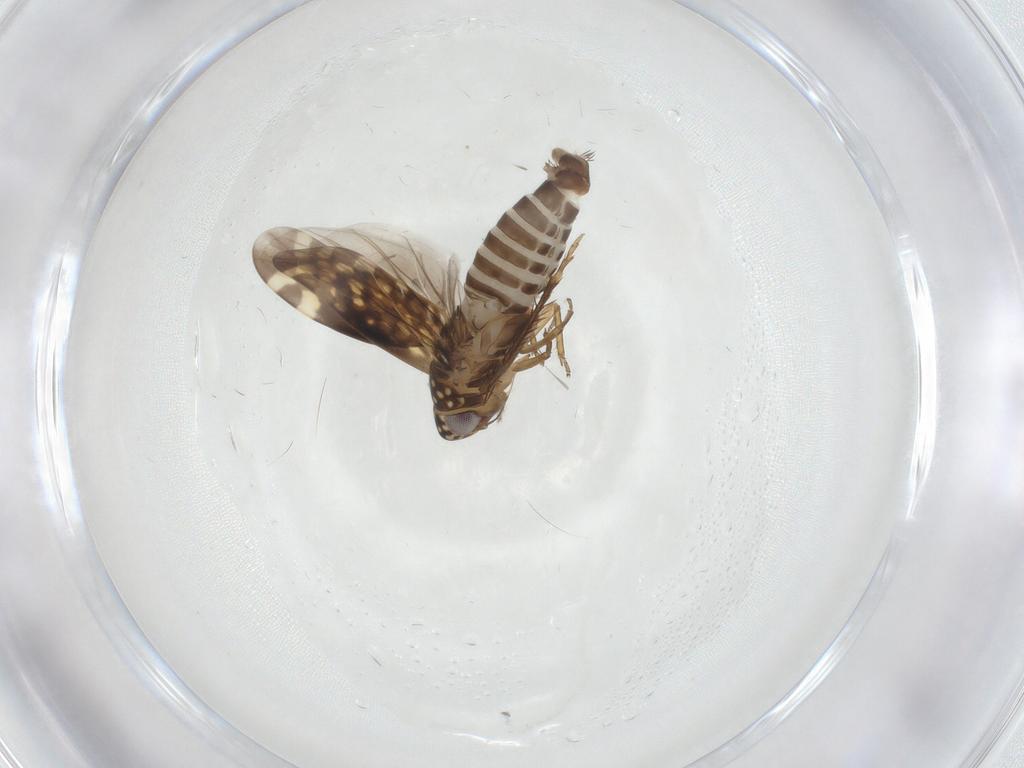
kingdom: Animalia
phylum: Arthropoda
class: Insecta
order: Hemiptera
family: Cicadellidae
